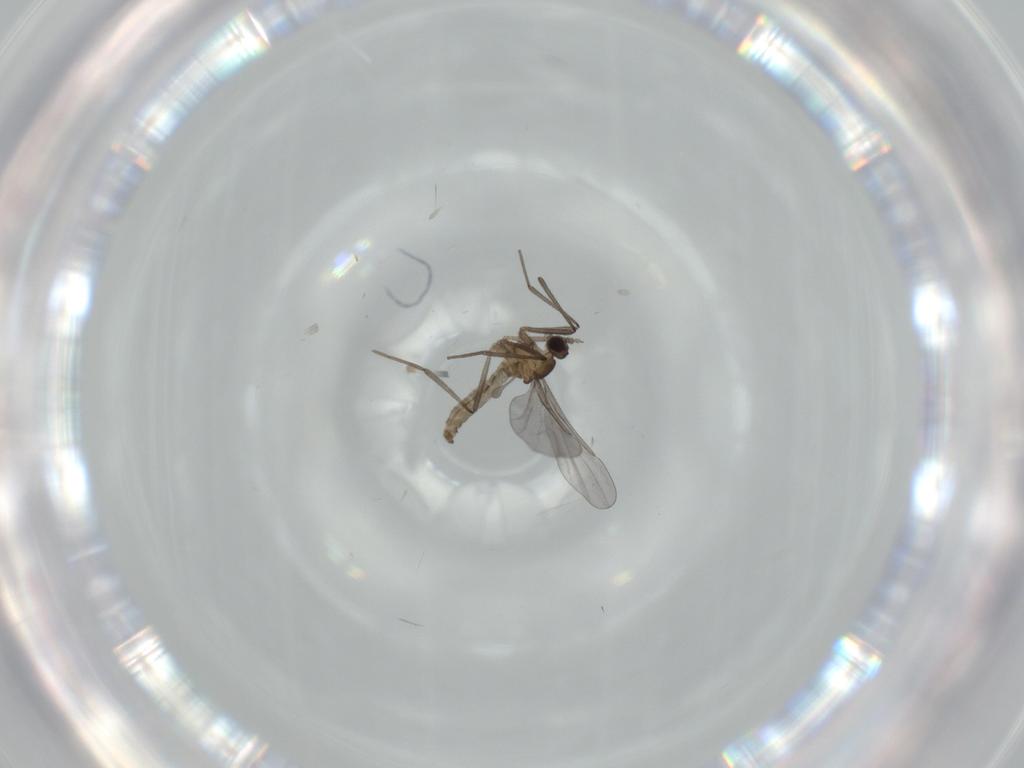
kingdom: Animalia
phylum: Arthropoda
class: Insecta
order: Diptera
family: Cecidomyiidae
